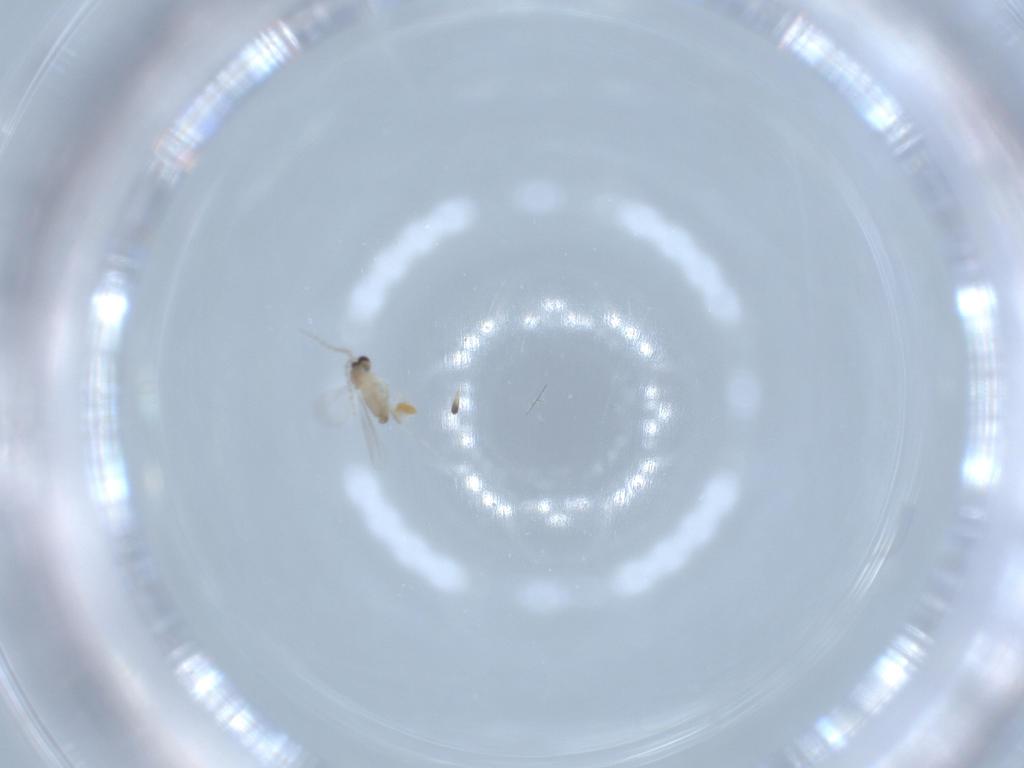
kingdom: Animalia
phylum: Arthropoda
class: Insecta
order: Diptera
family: Cecidomyiidae
